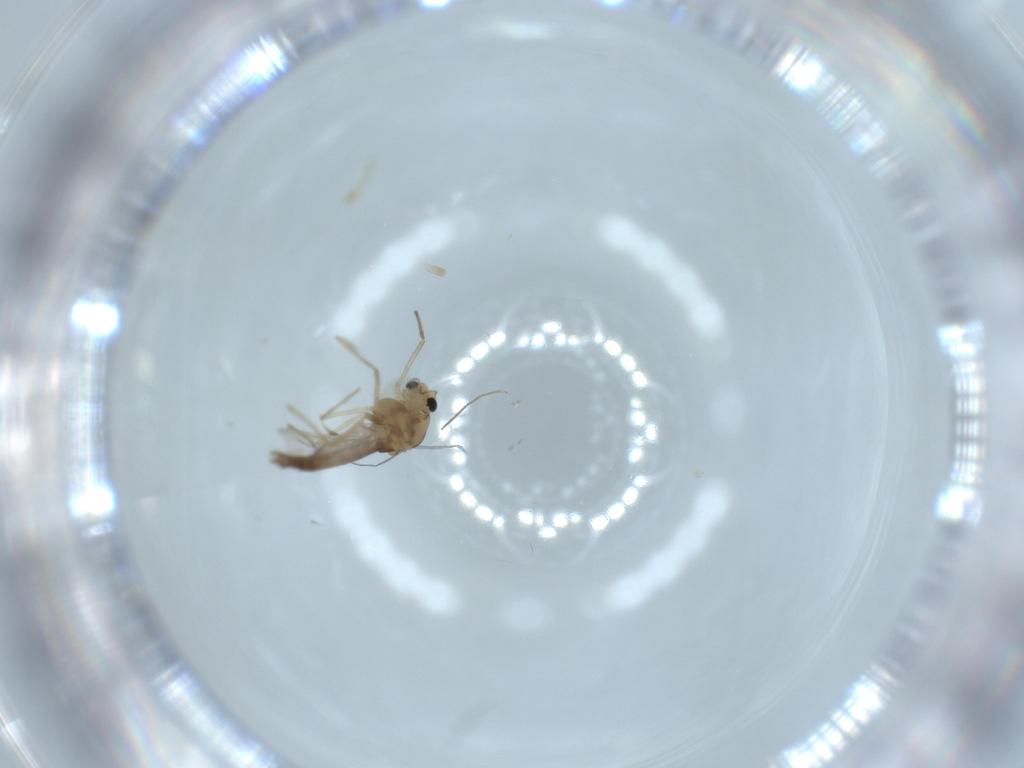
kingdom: Animalia
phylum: Arthropoda
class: Insecta
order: Diptera
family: Chironomidae
